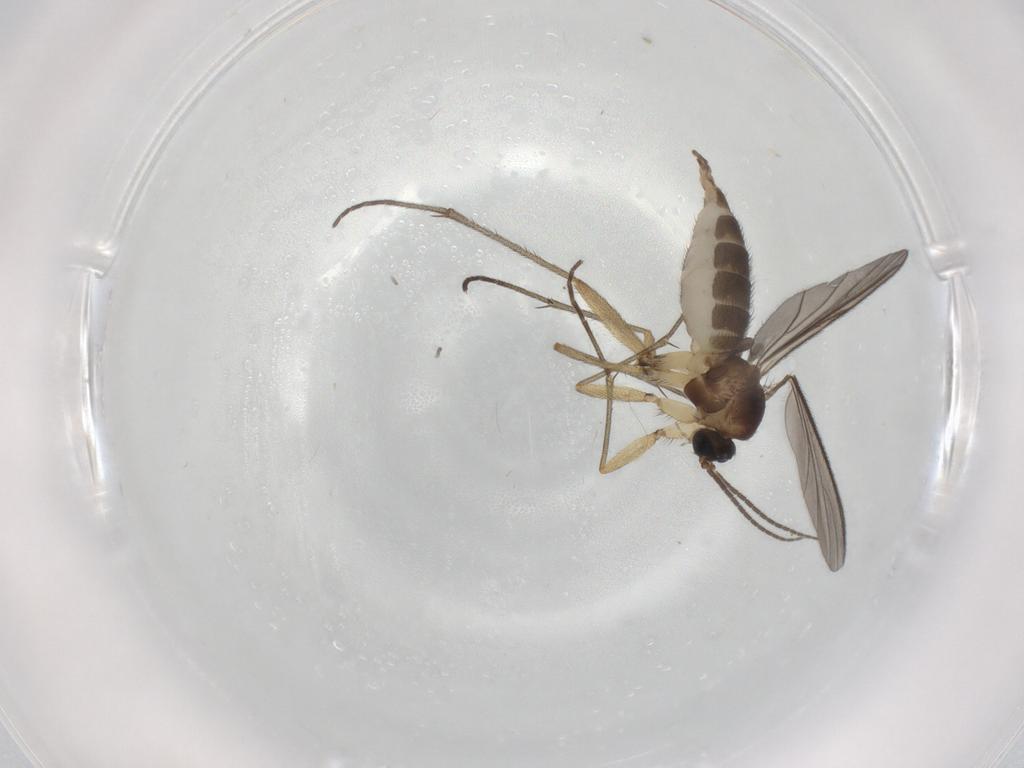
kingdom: Animalia
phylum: Arthropoda
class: Insecta
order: Diptera
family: Sciaridae
